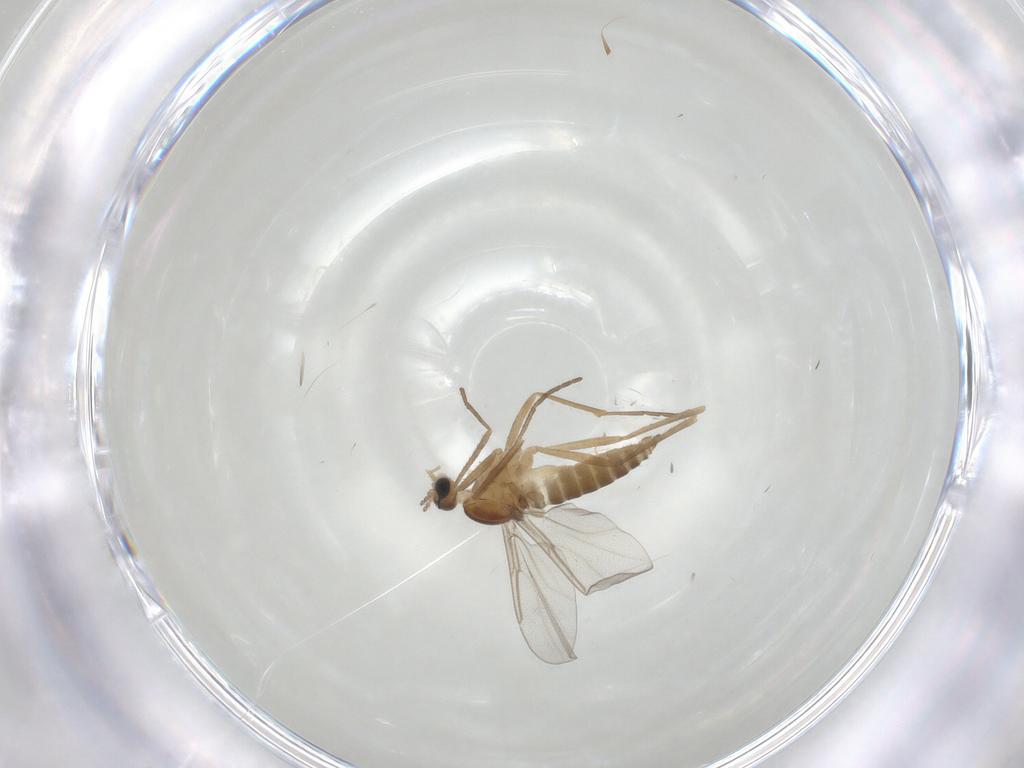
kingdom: Animalia
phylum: Arthropoda
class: Insecta
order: Diptera
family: Cecidomyiidae
